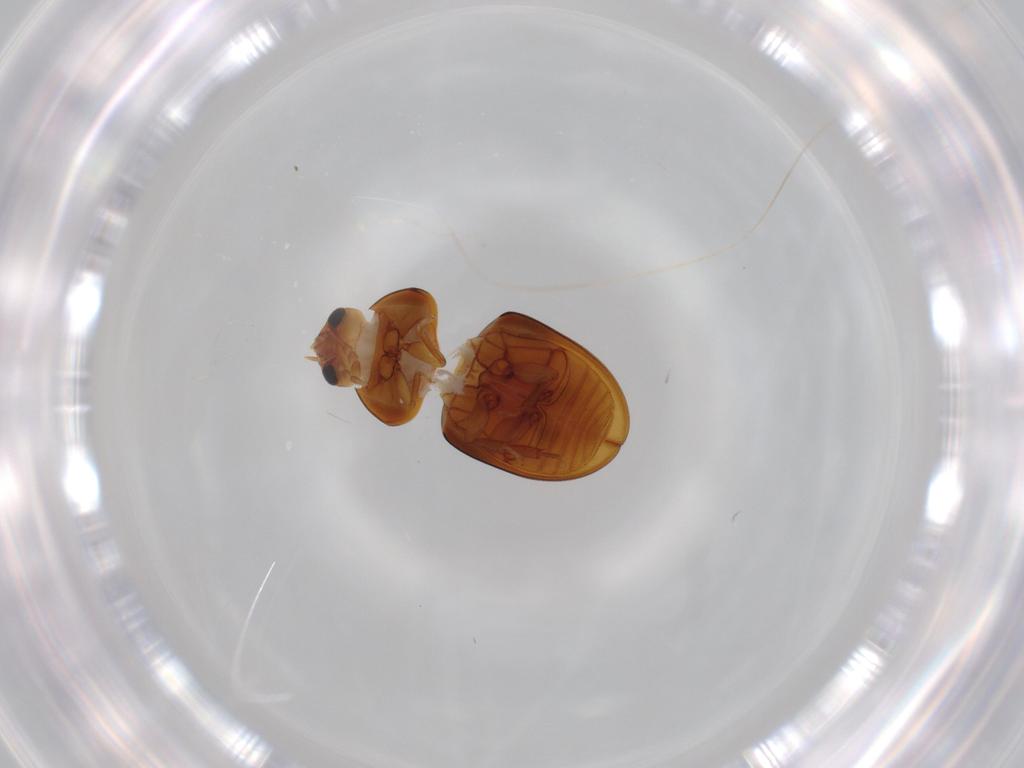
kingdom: Animalia
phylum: Arthropoda
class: Insecta
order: Coleoptera
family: Phalacridae
